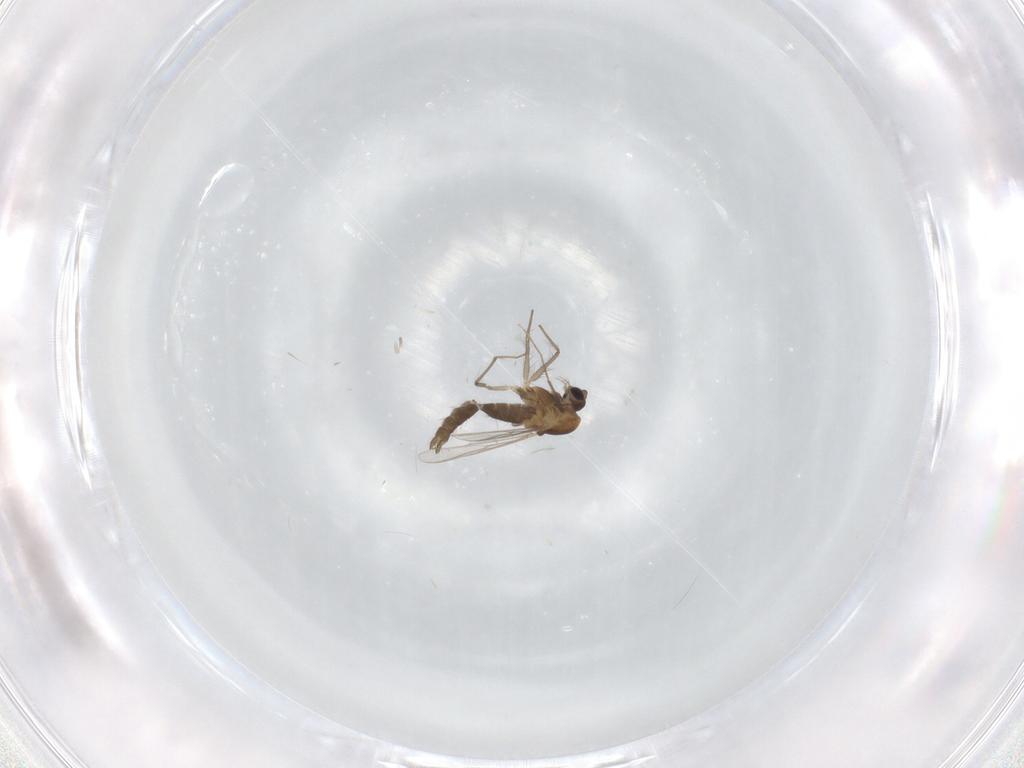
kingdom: Animalia
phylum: Arthropoda
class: Insecta
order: Diptera
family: Chironomidae
